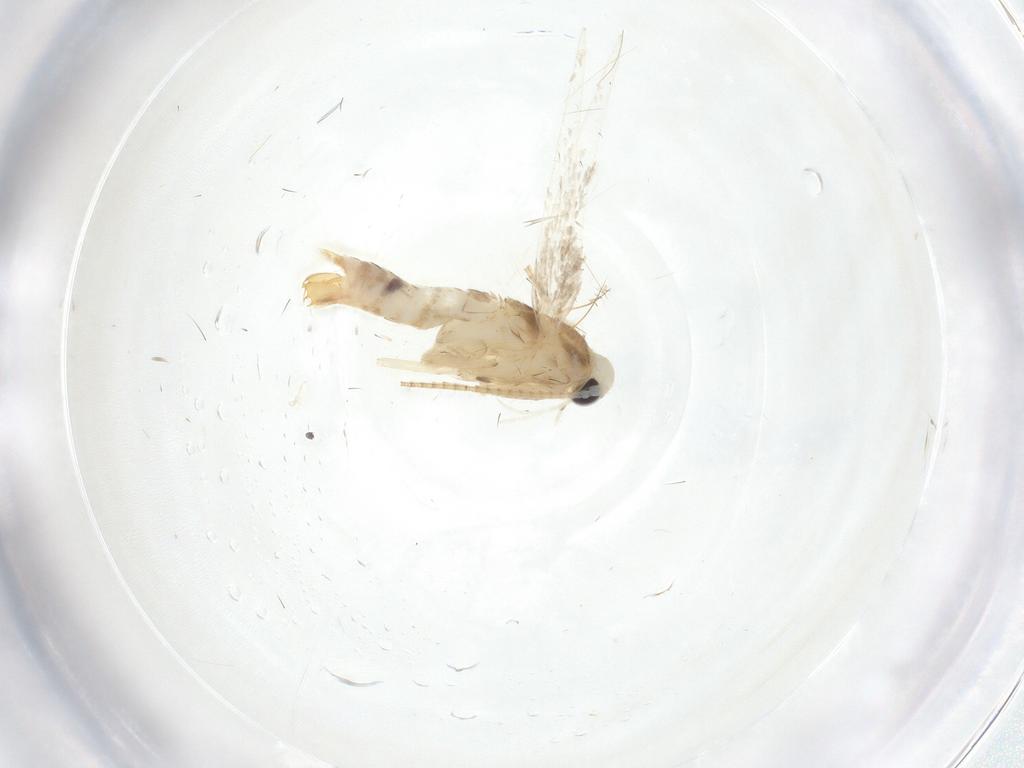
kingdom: Animalia
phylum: Arthropoda
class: Insecta
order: Lepidoptera
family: Gracillariidae
